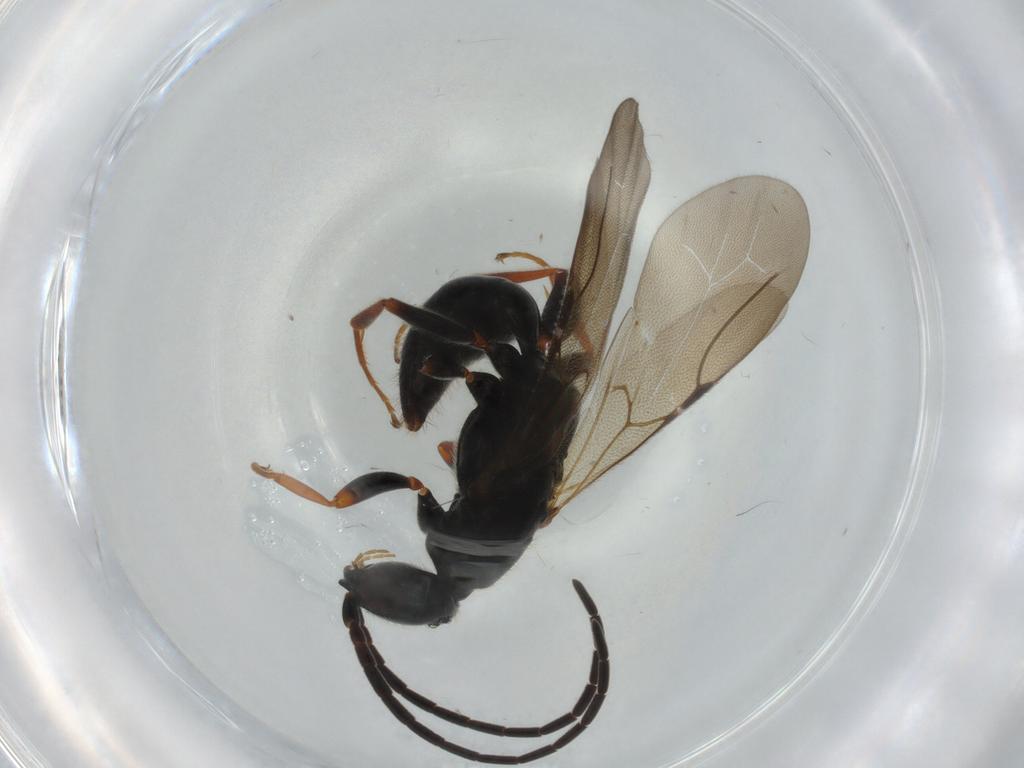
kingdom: Animalia
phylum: Arthropoda
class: Insecta
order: Hymenoptera
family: Bethylidae
